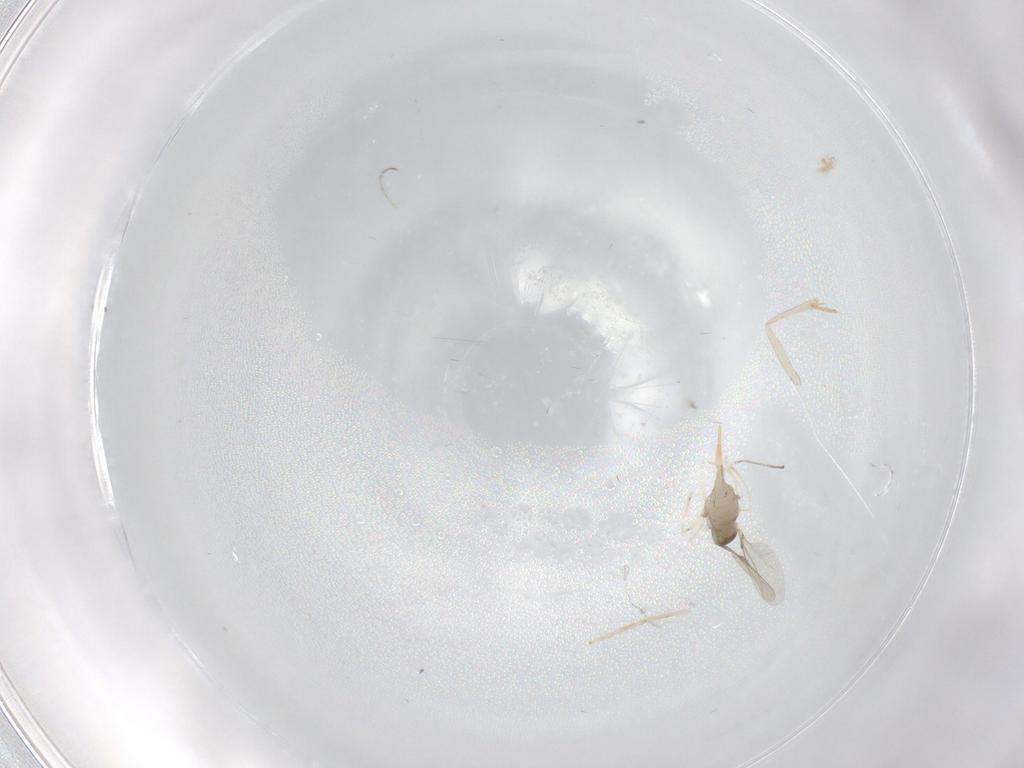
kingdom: Animalia
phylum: Arthropoda
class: Insecta
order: Diptera
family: Cecidomyiidae
